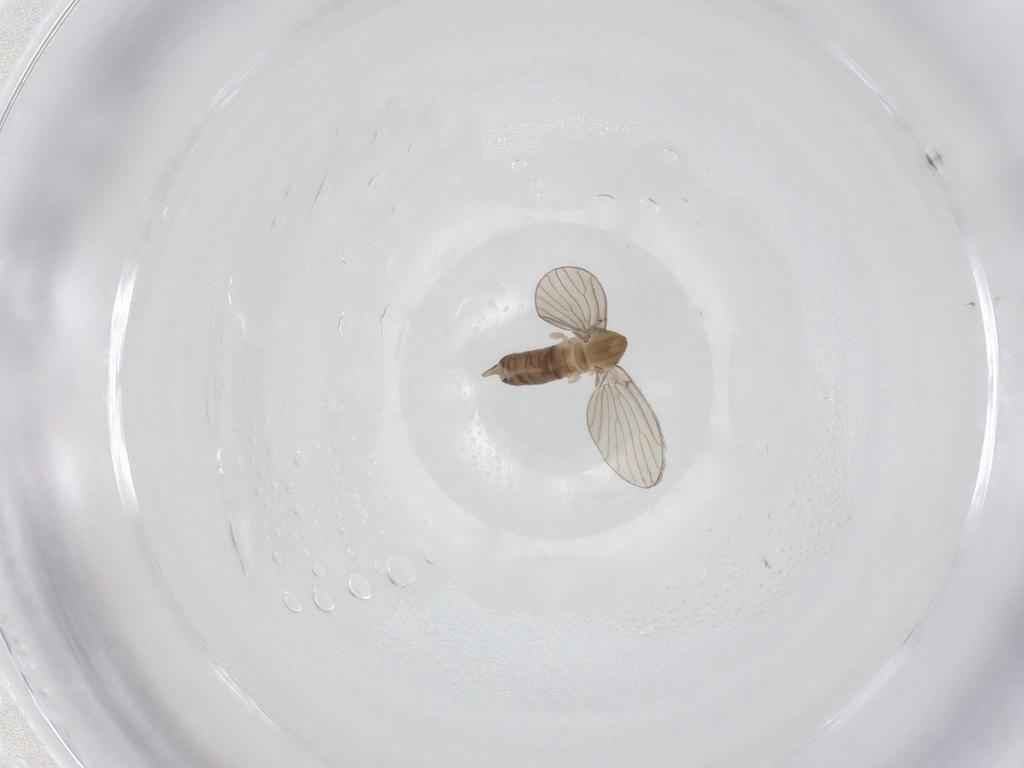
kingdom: Animalia
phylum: Arthropoda
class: Insecta
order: Diptera
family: Ceratopogonidae
